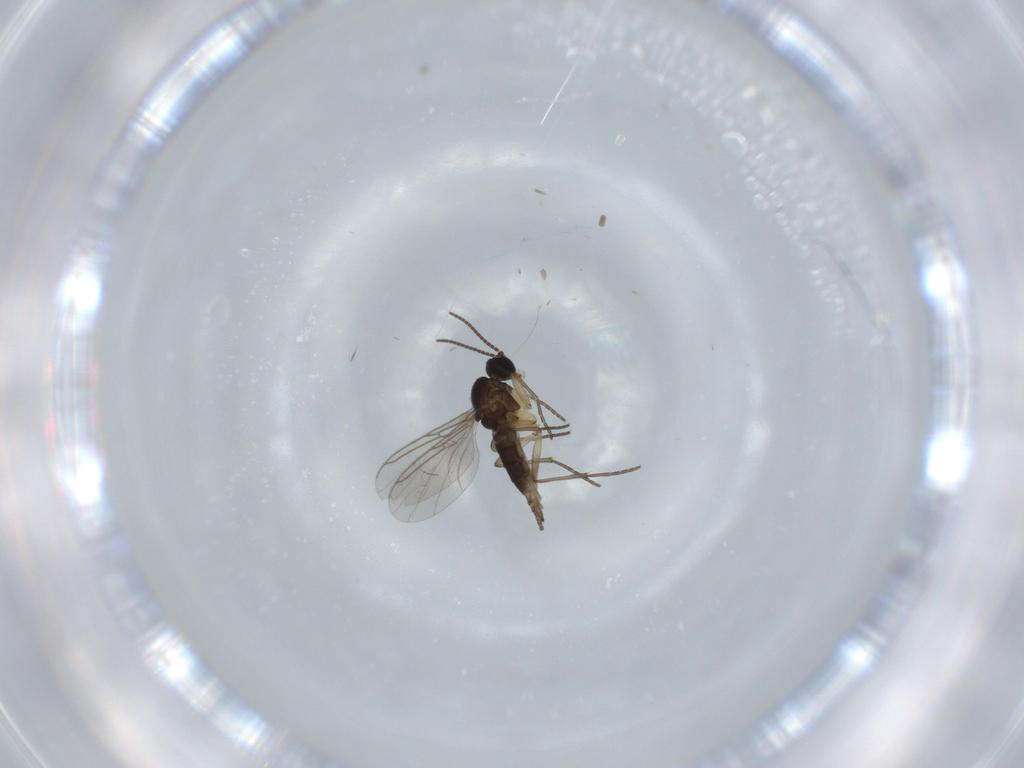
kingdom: Animalia
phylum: Arthropoda
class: Insecta
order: Diptera
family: Limoniidae
